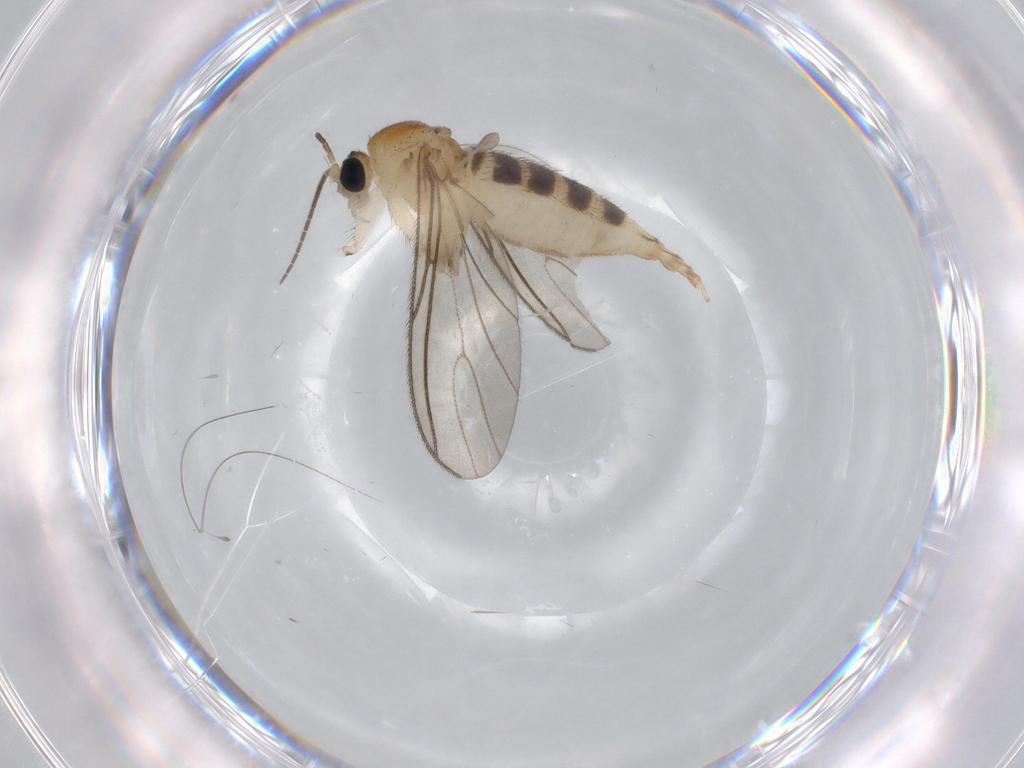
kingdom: Animalia
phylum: Arthropoda
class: Insecta
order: Diptera
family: Sciaridae
